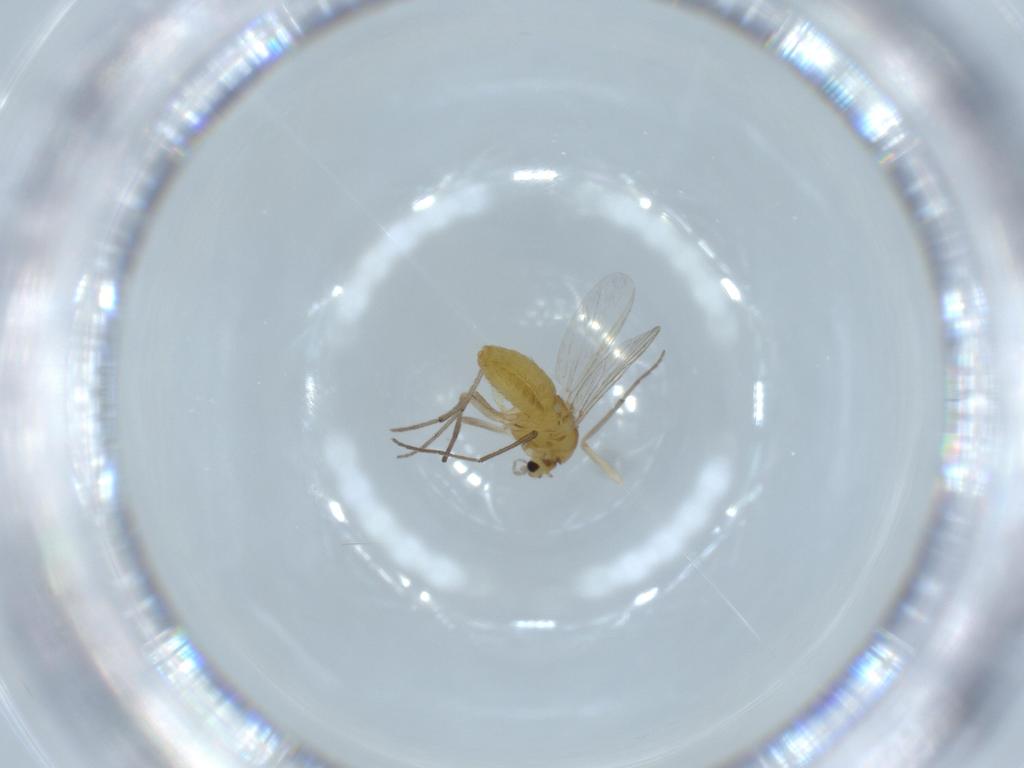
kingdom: Animalia
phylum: Arthropoda
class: Insecta
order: Diptera
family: Chironomidae
